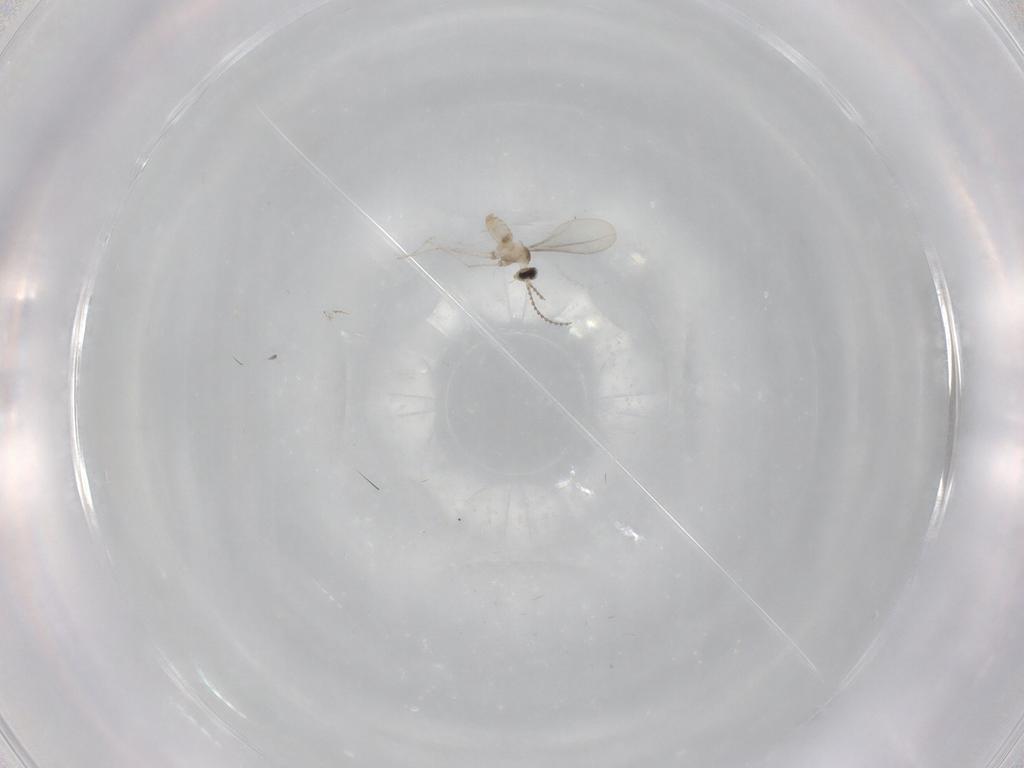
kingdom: Animalia
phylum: Arthropoda
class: Insecta
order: Diptera
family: Cecidomyiidae
